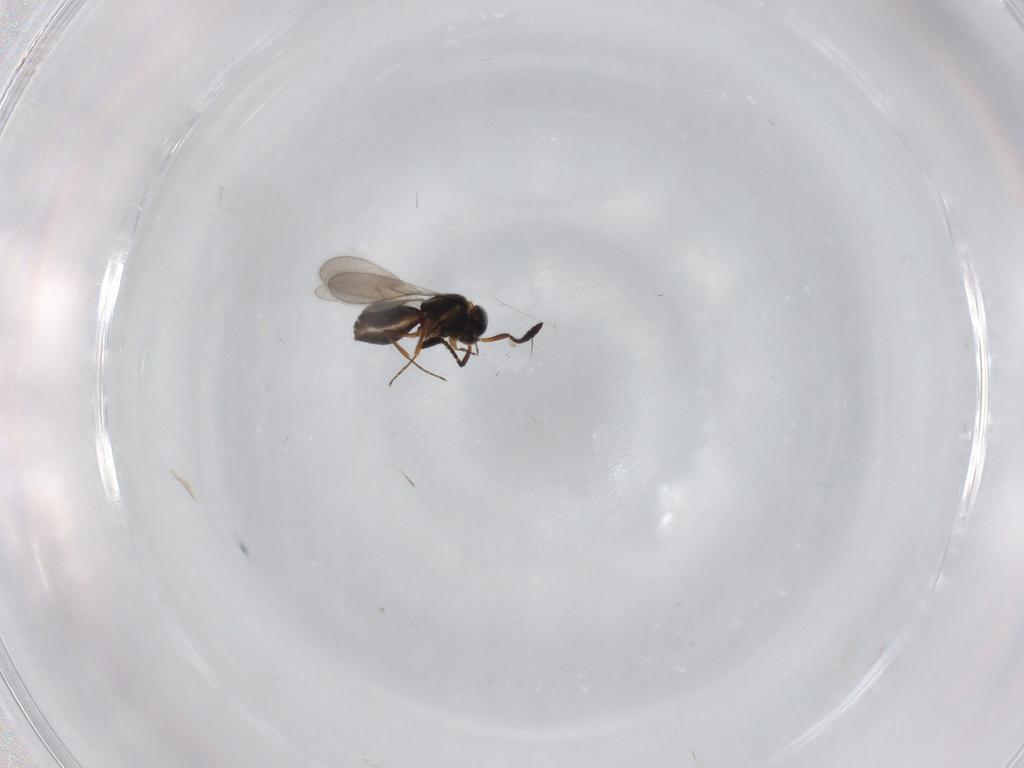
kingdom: Animalia
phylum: Arthropoda
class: Insecta
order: Hymenoptera
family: Scelionidae
